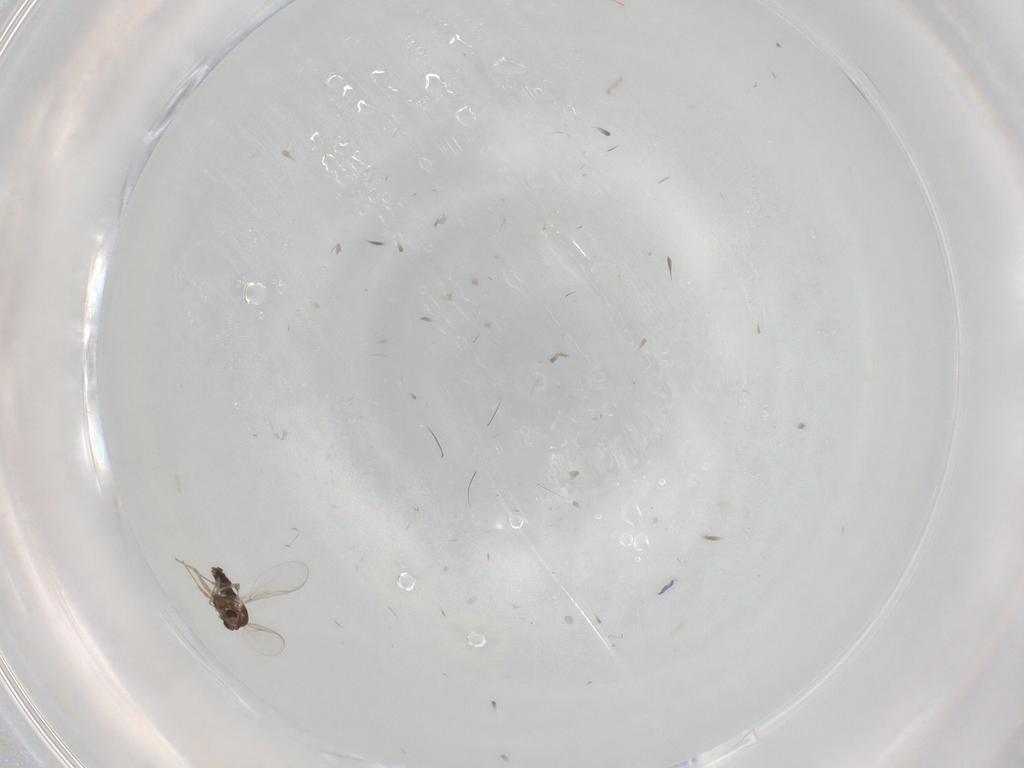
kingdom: Animalia
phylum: Arthropoda
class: Insecta
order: Diptera
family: Chironomidae
